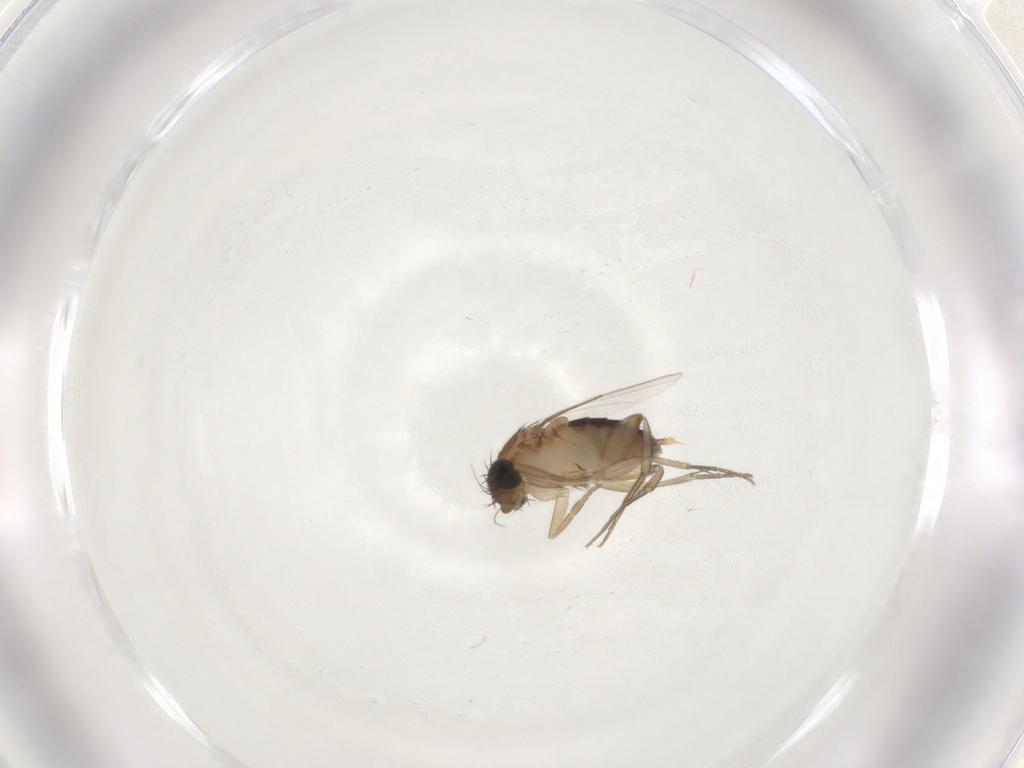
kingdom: Animalia
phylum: Arthropoda
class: Insecta
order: Diptera
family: Phoridae
